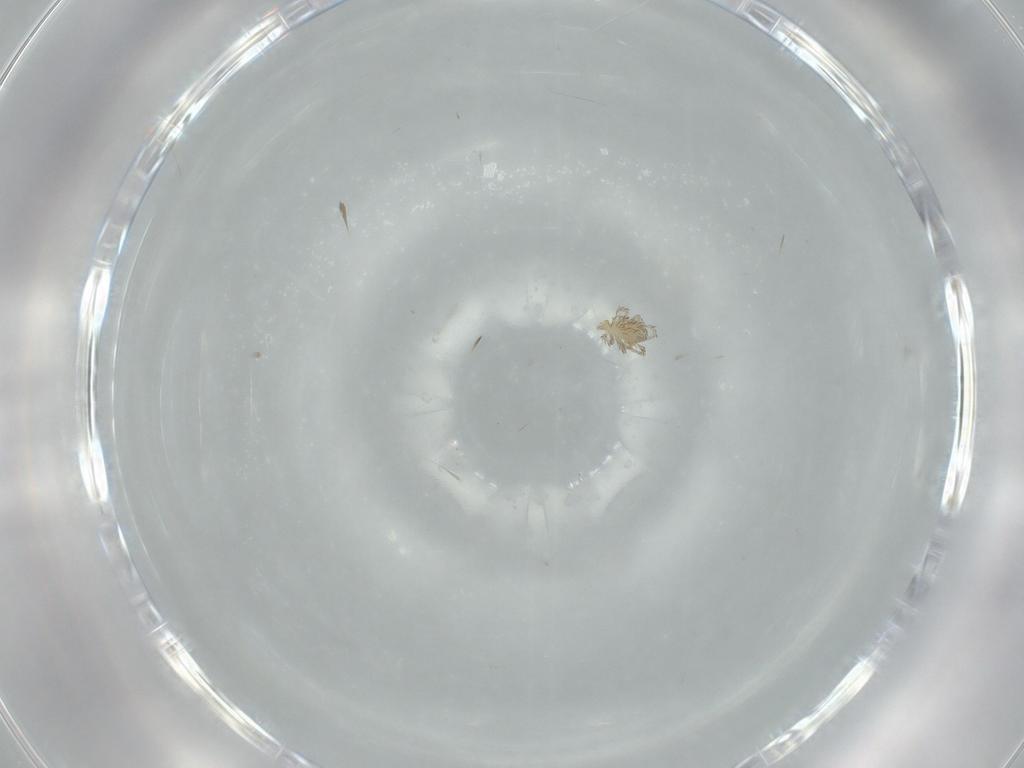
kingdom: Animalia
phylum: Arthropoda
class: Arachnida
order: Trombidiformes
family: Erythraeidae
